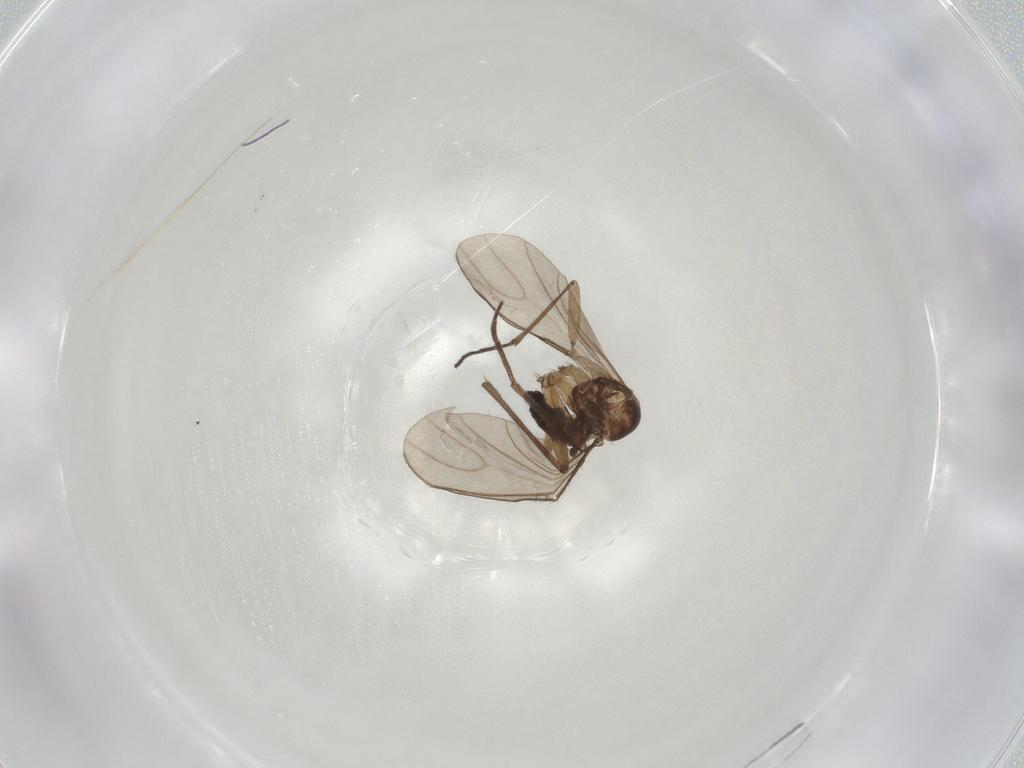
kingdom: Animalia
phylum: Arthropoda
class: Insecta
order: Diptera
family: Sciaridae
